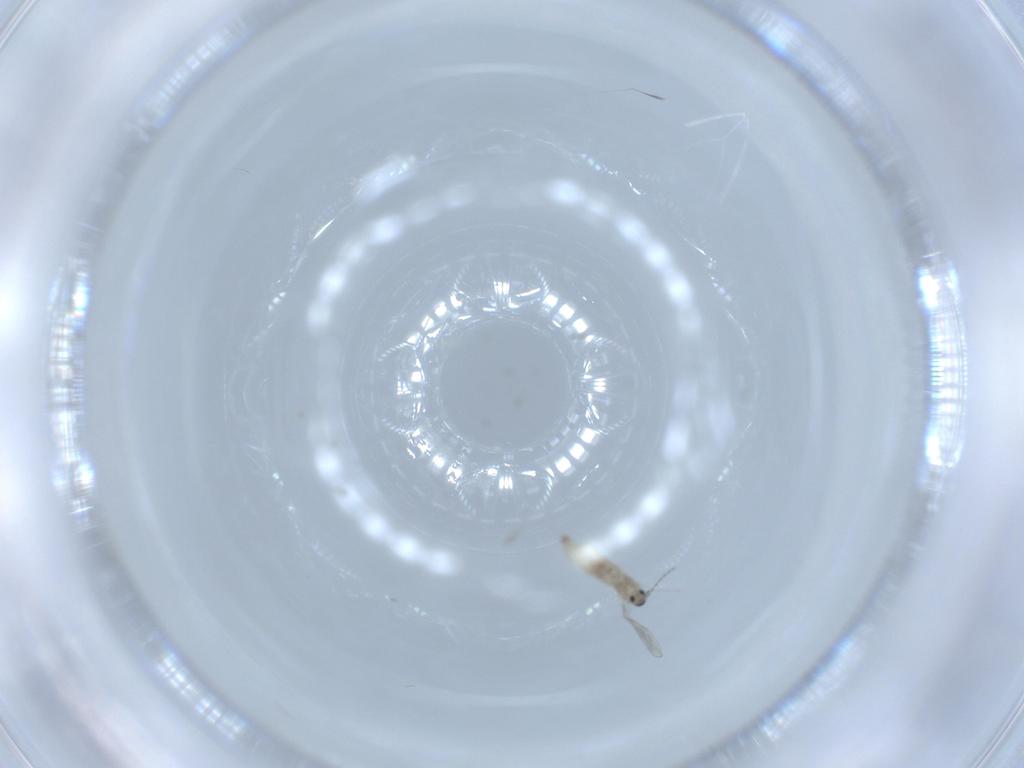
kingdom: Animalia
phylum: Arthropoda
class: Insecta
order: Diptera
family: Cecidomyiidae
